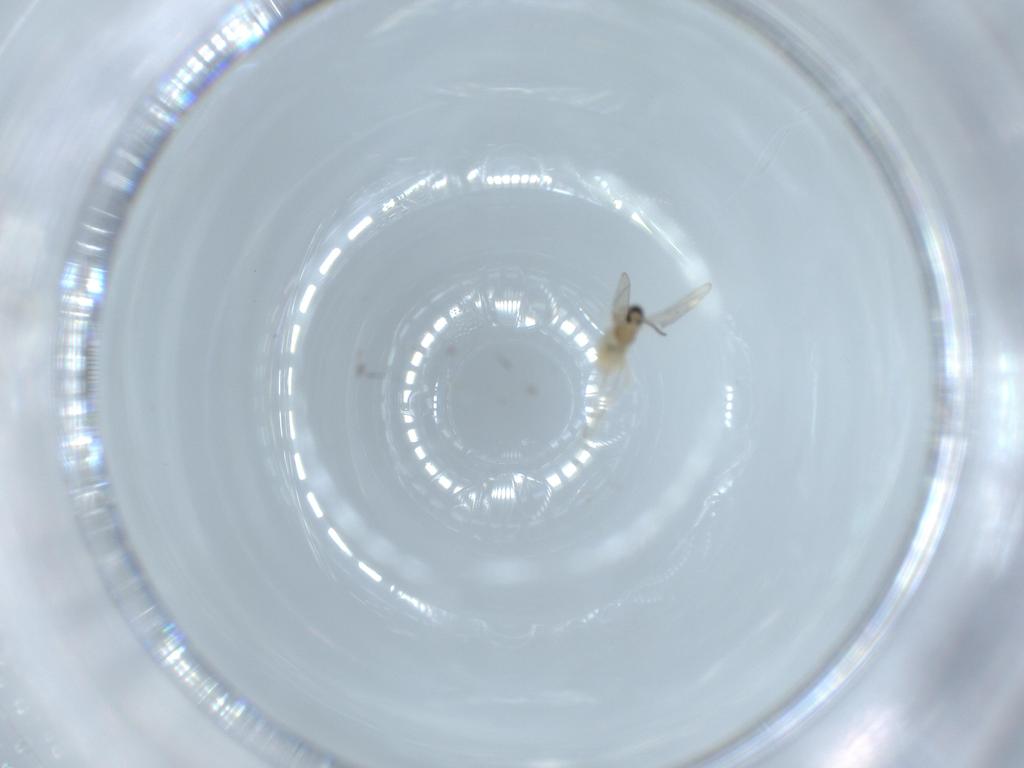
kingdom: Animalia
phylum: Arthropoda
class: Insecta
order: Diptera
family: Cecidomyiidae
